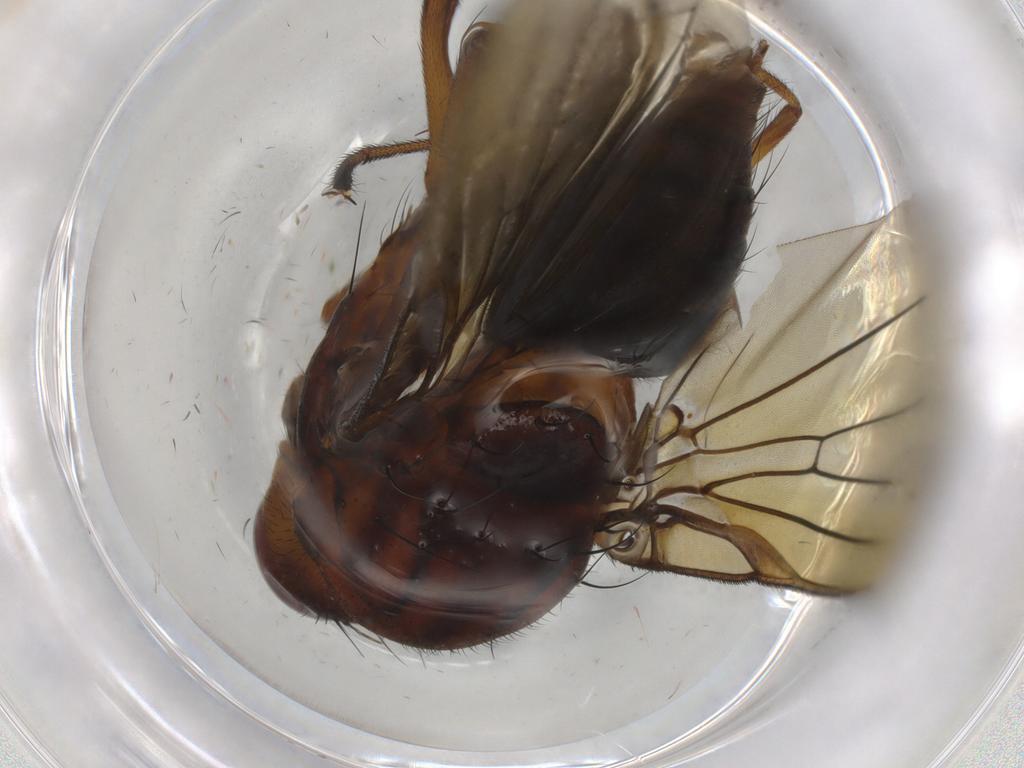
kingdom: Animalia
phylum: Arthropoda
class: Insecta
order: Diptera
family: Sciaridae
